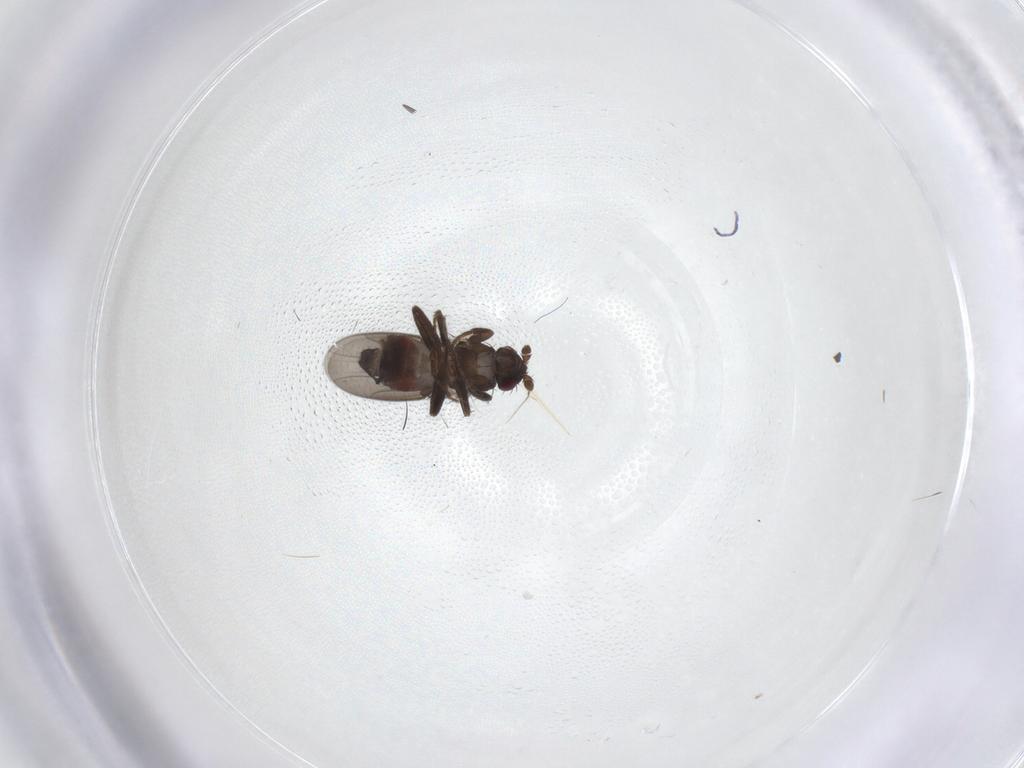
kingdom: Animalia
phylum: Arthropoda
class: Insecta
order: Diptera
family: Sphaeroceridae
